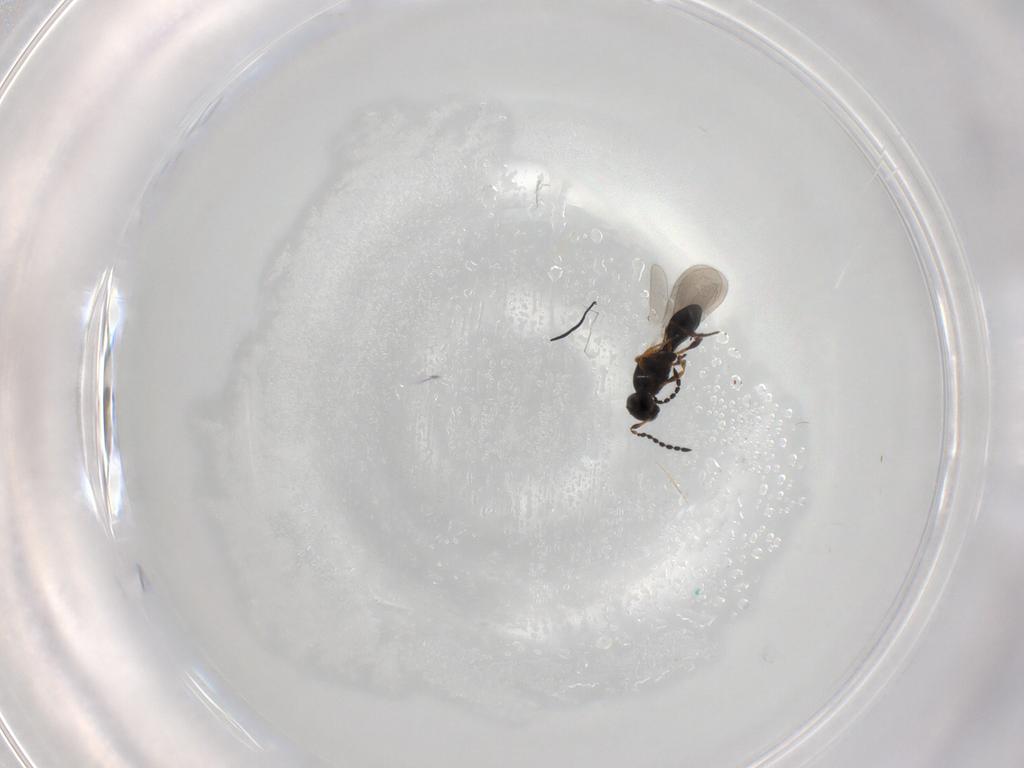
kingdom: Animalia
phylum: Arthropoda
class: Insecta
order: Hymenoptera
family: Platygastridae
